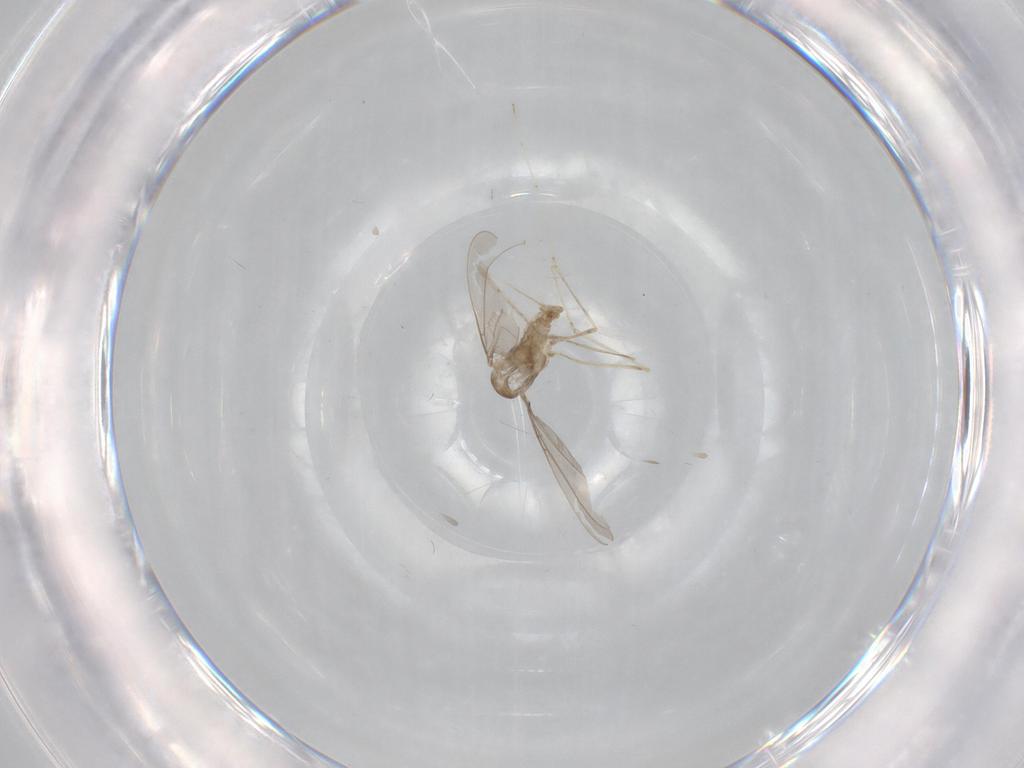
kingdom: Animalia
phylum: Arthropoda
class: Insecta
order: Diptera
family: Cecidomyiidae
